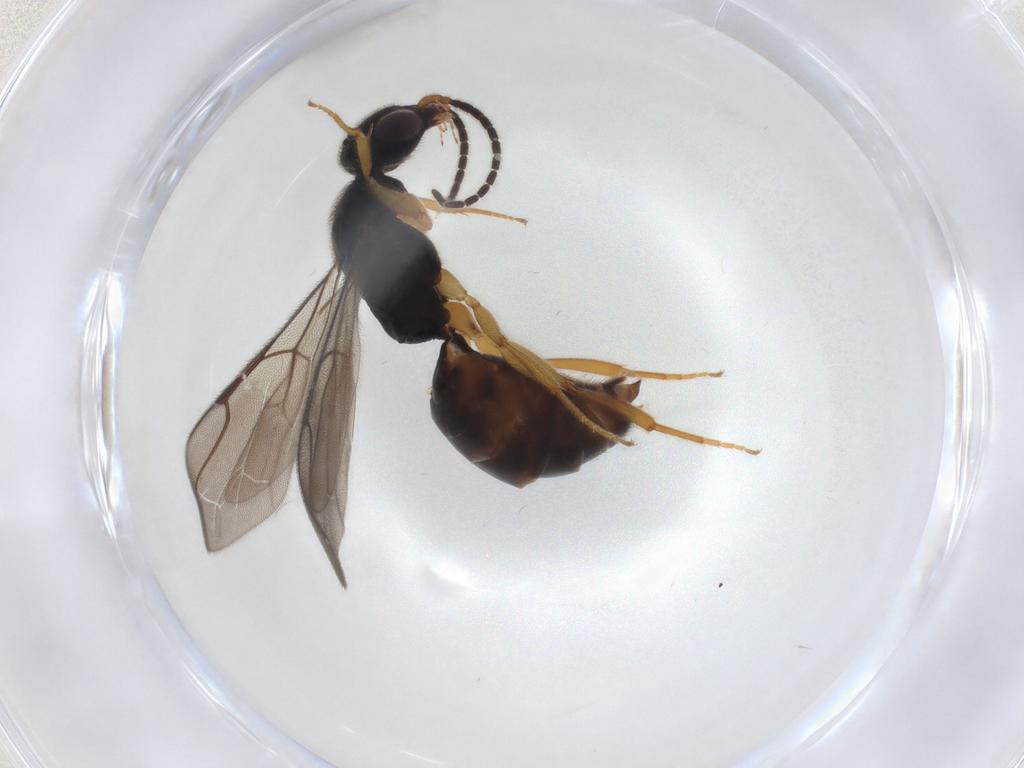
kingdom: Animalia
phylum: Arthropoda
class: Insecta
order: Hymenoptera
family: Bethylidae
